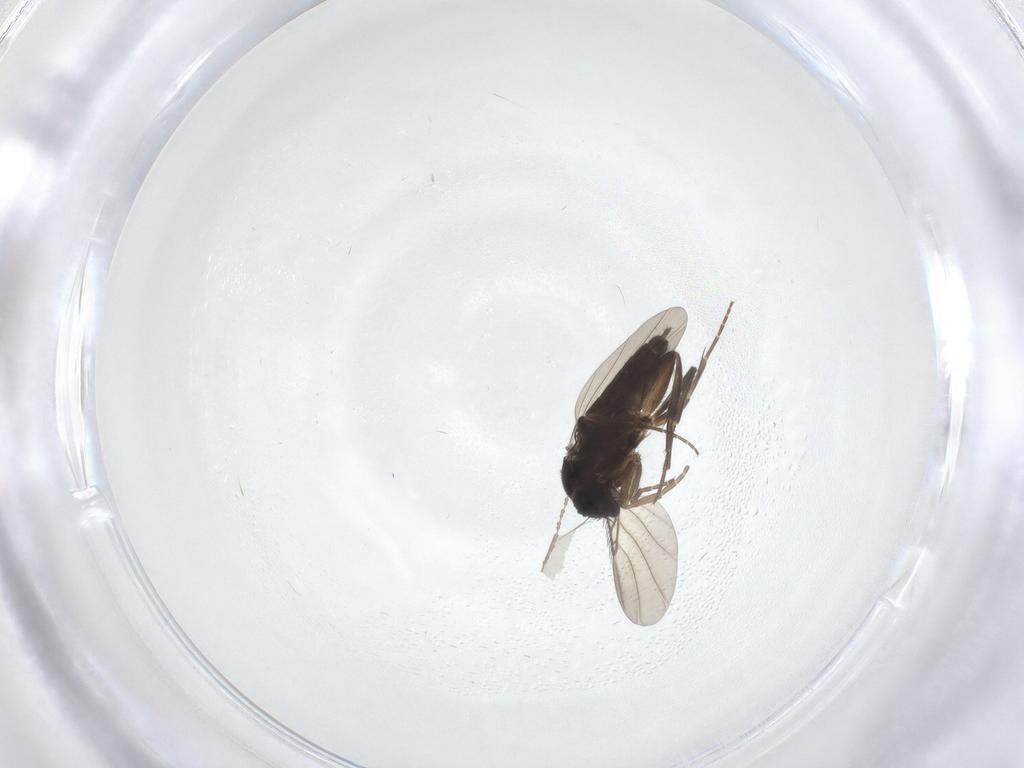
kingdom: Animalia
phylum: Arthropoda
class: Insecta
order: Diptera
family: Phoridae
